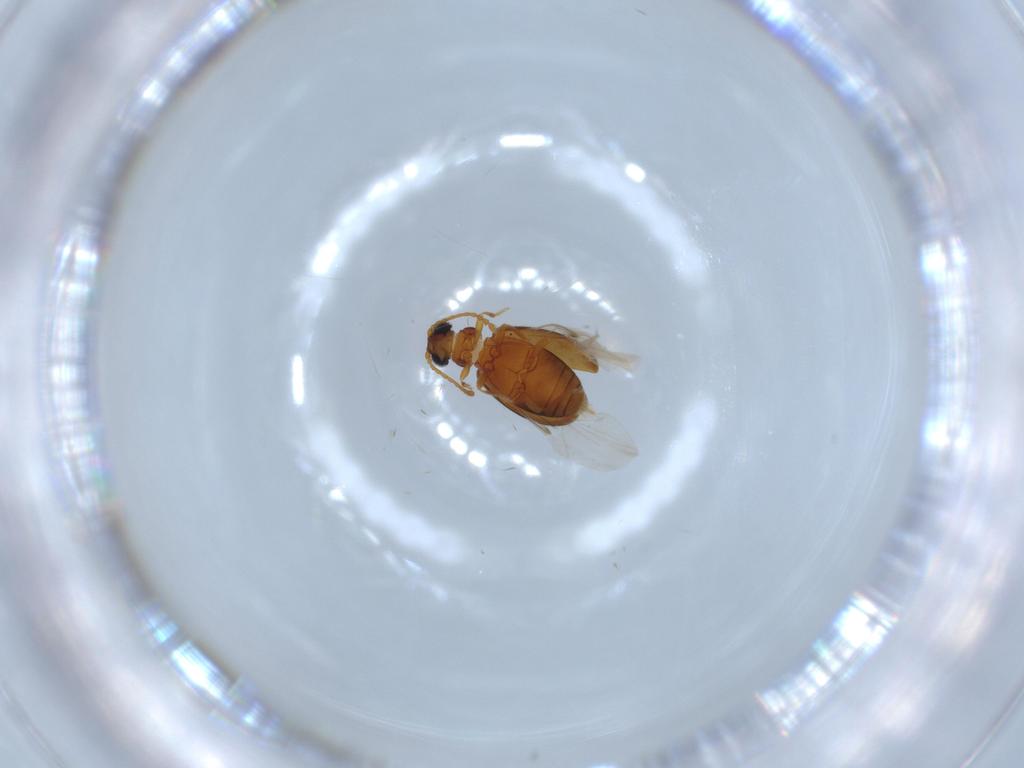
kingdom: Animalia
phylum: Arthropoda
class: Insecta
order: Coleoptera
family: Aderidae
